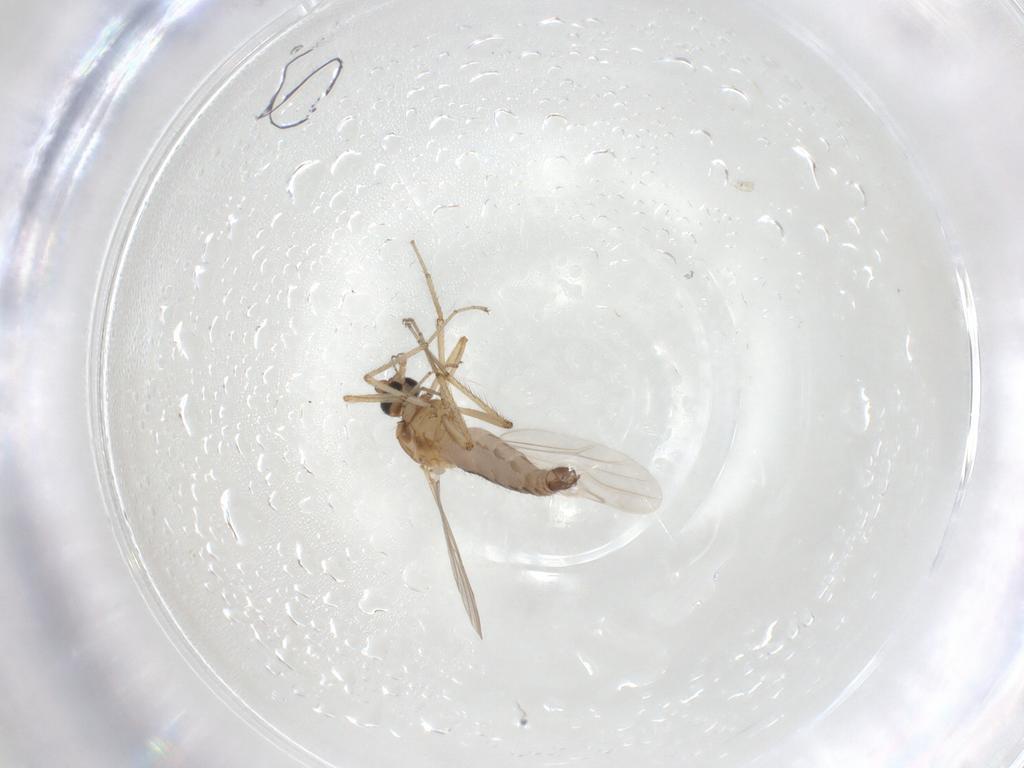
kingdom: Animalia
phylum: Arthropoda
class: Insecta
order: Diptera
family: Ceratopogonidae
